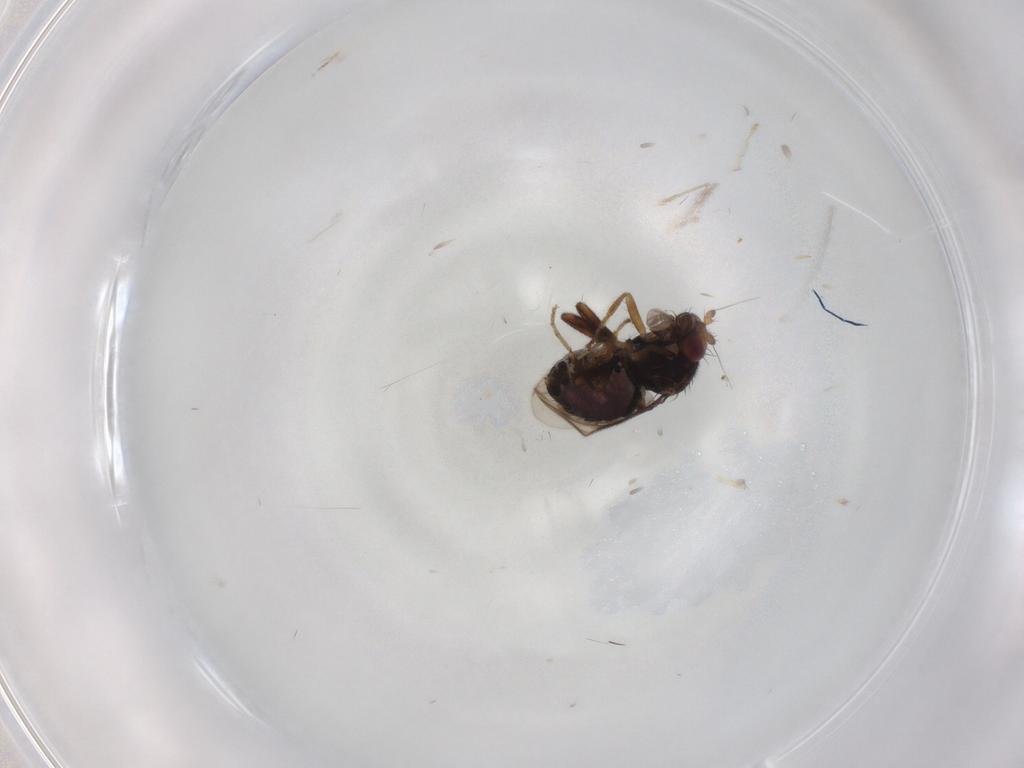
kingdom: Animalia
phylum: Arthropoda
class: Insecta
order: Diptera
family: Sphaeroceridae
